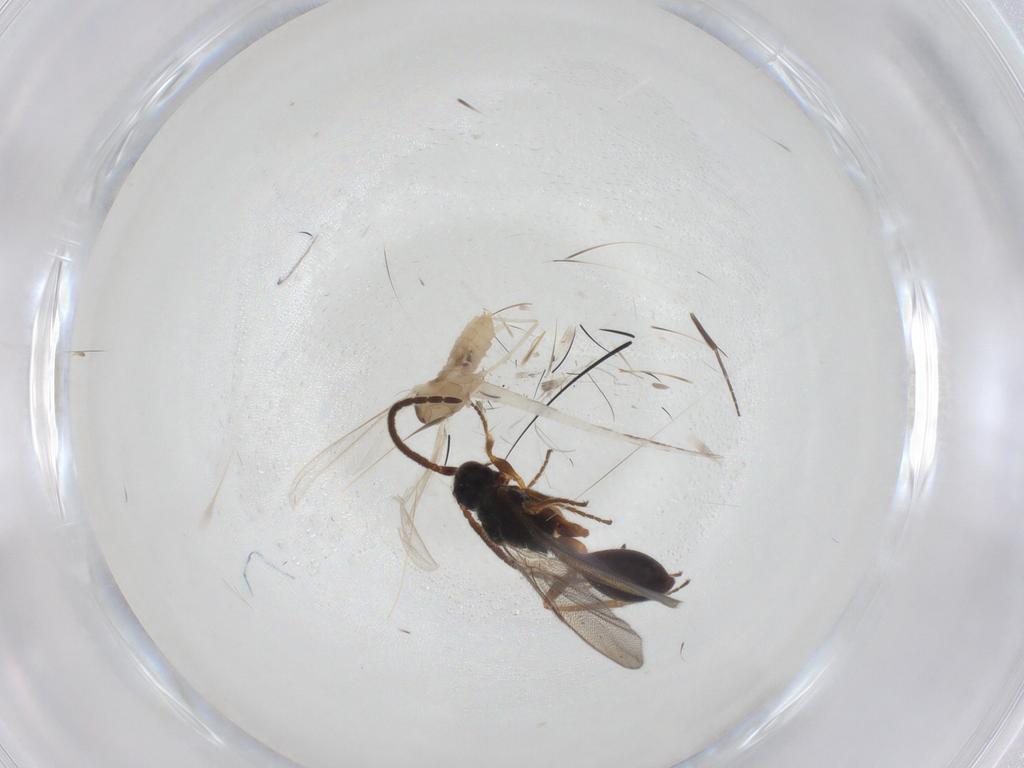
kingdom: Animalia
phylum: Arthropoda
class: Insecta
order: Diptera
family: Cecidomyiidae
